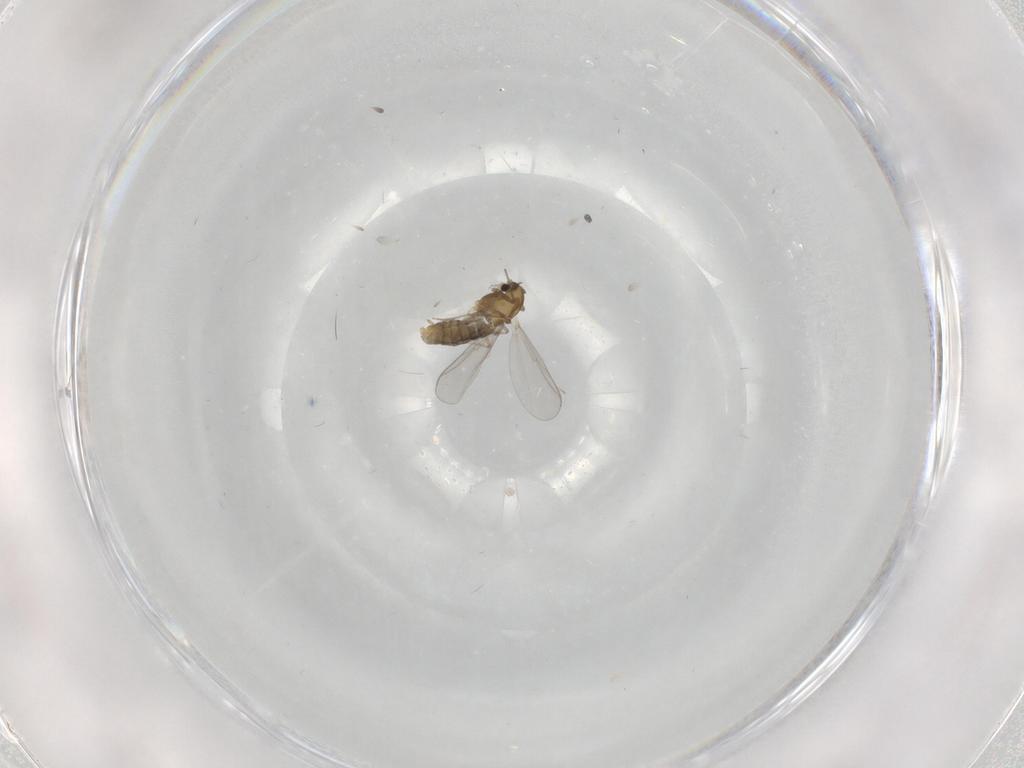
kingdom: Animalia
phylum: Arthropoda
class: Insecta
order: Diptera
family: Chironomidae
